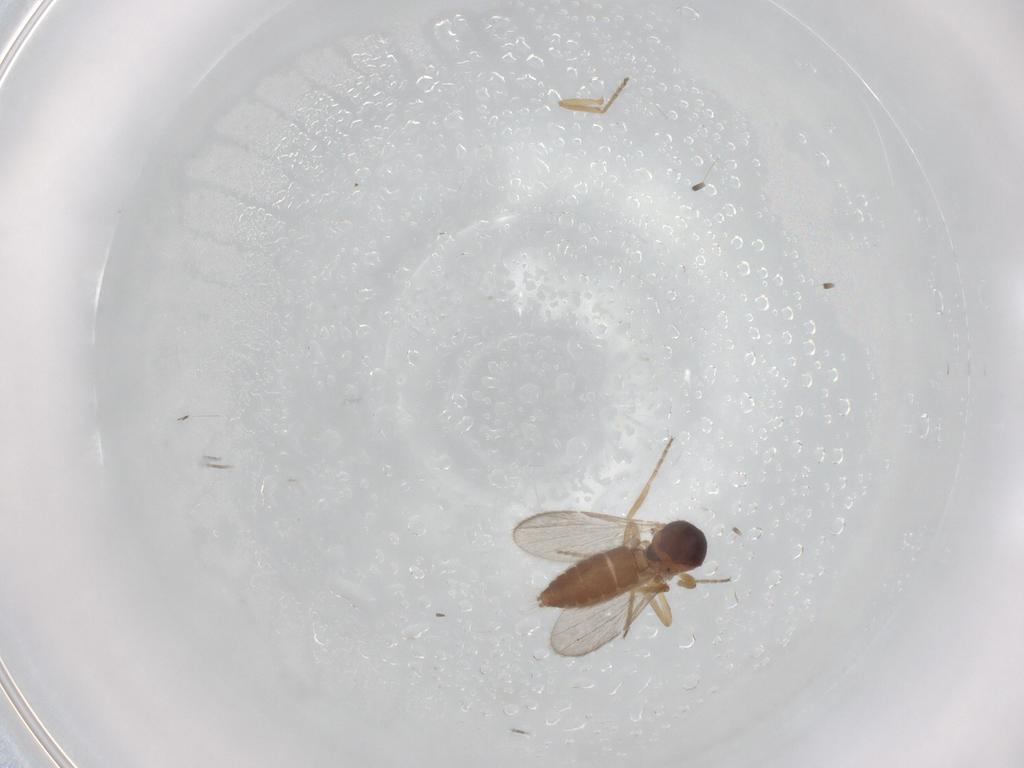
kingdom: Animalia
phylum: Arthropoda
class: Insecta
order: Diptera
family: Ceratopogonidae
